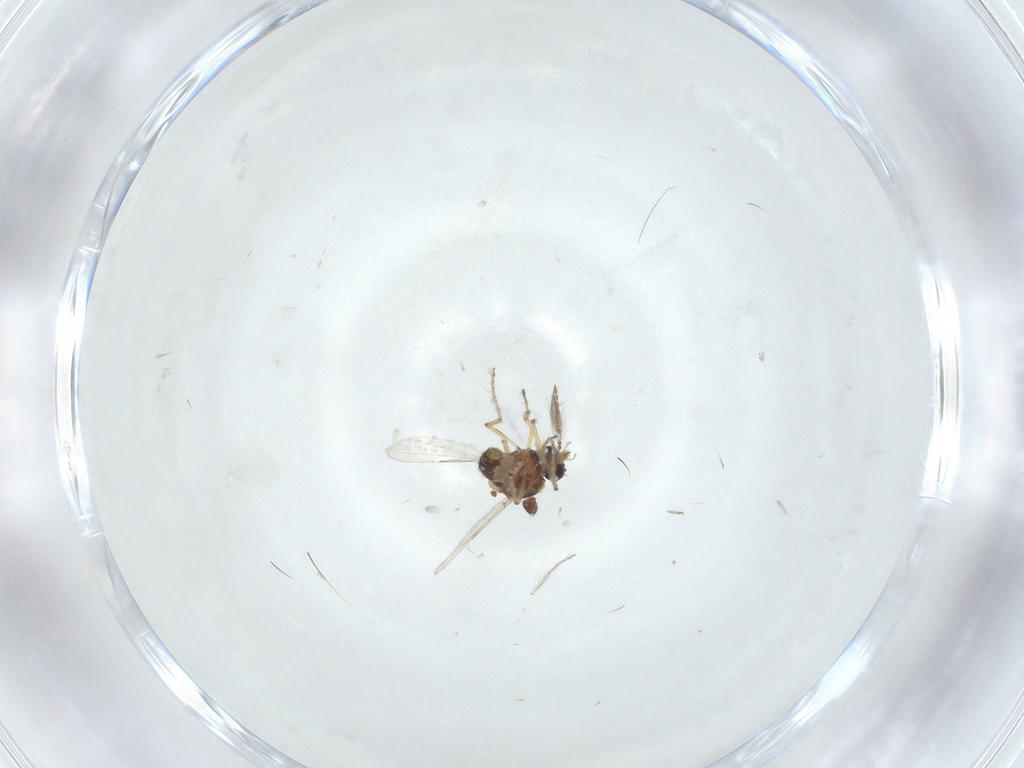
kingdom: Animalia
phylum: Arthropoda
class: Insecta
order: Diptera
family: Ceratopogonidae
